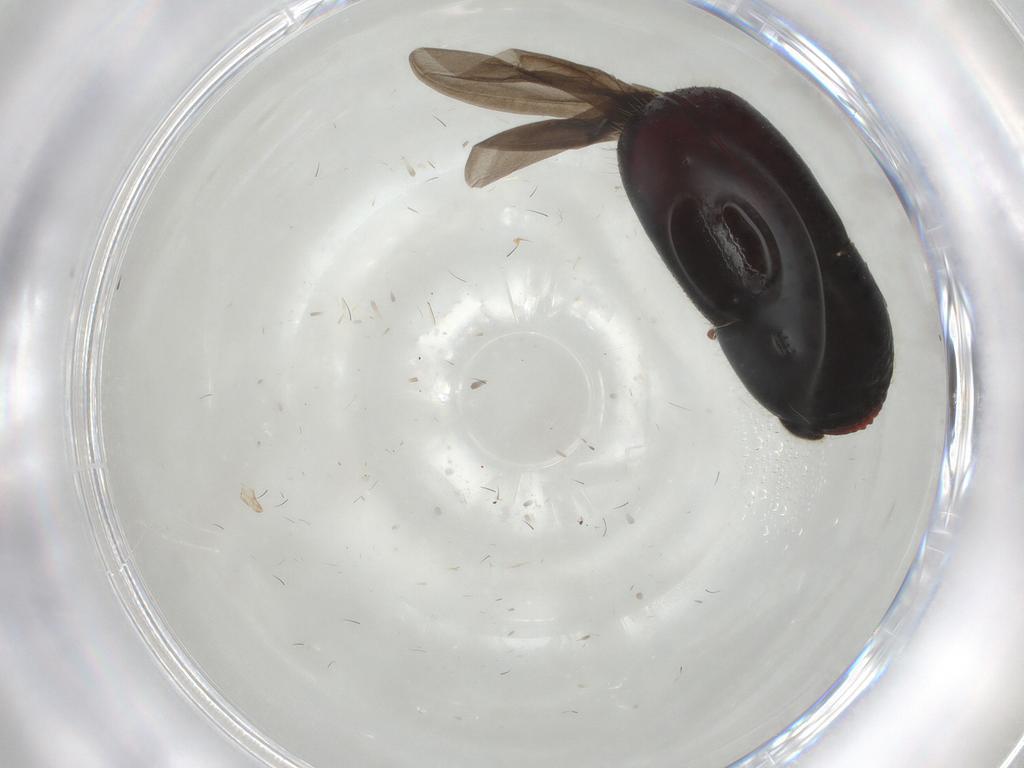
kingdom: Animalia
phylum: Arthropoda
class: Insecta
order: Coleoptera
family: Curculionidae
